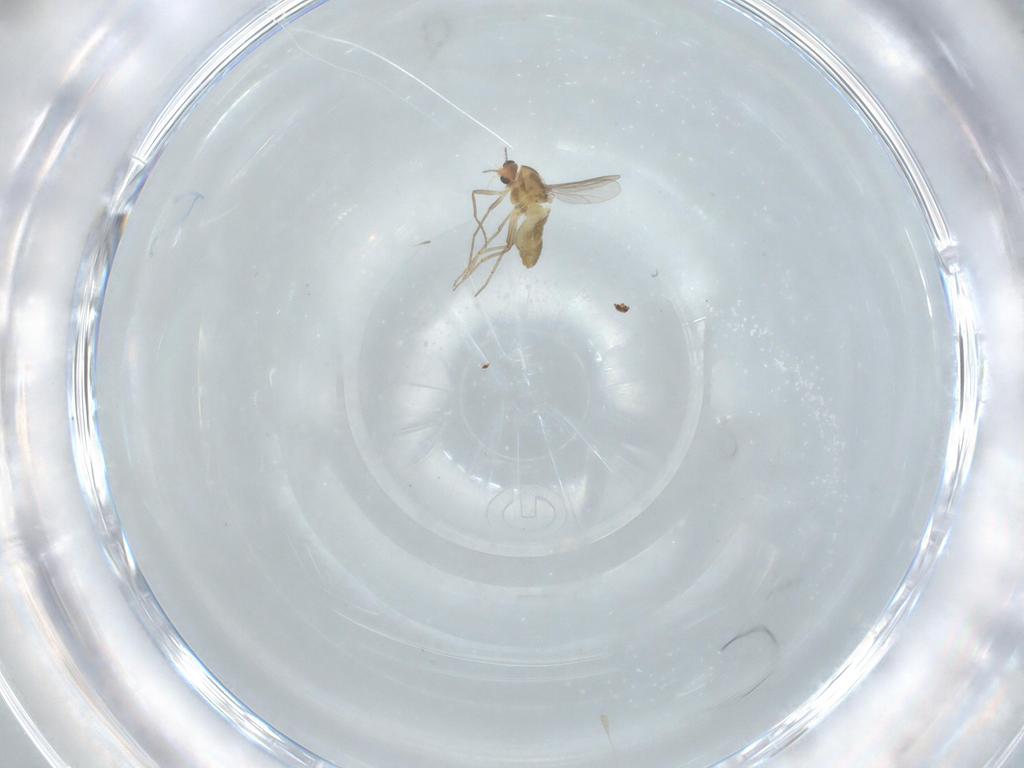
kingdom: Animalia
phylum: Arthropoda
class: Insecta
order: Diptera
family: Chironomidae
